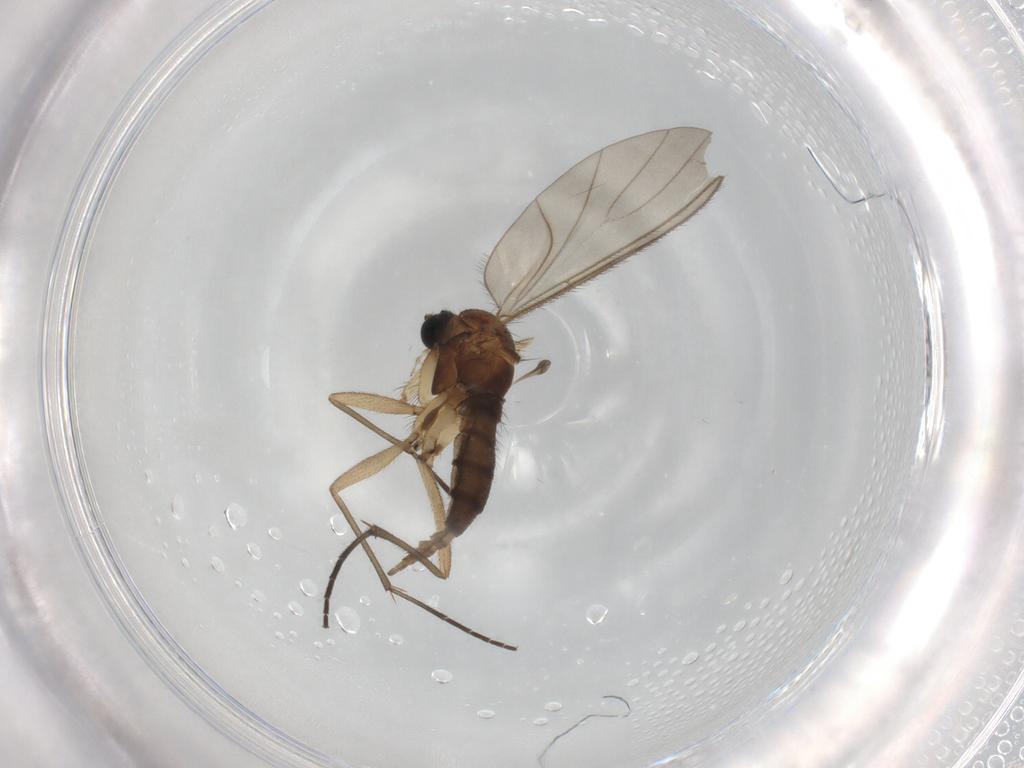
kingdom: Animalia
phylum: Arthropoda
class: Insecta
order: Diptera
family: Sciaridae
